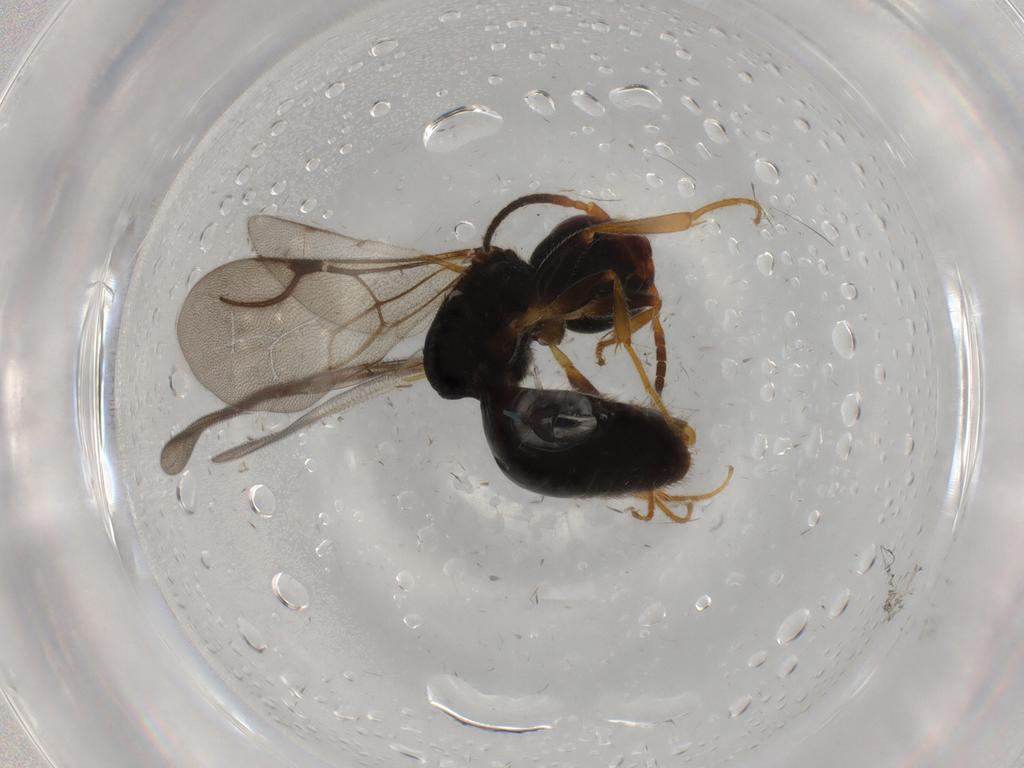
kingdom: Animalia
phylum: Arthropoda
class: Insecta
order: Hymenoptera
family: Bethylidae
